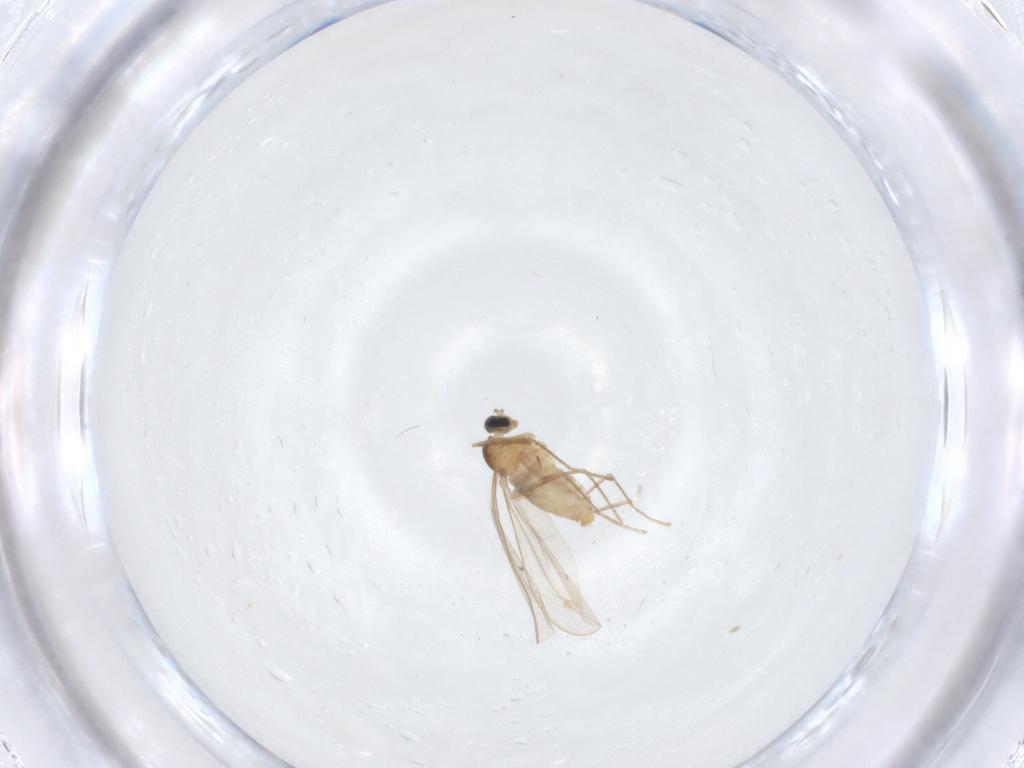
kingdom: Animalia
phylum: Arthropoda
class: Insecta
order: Diptera
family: Cecidomyiidae
